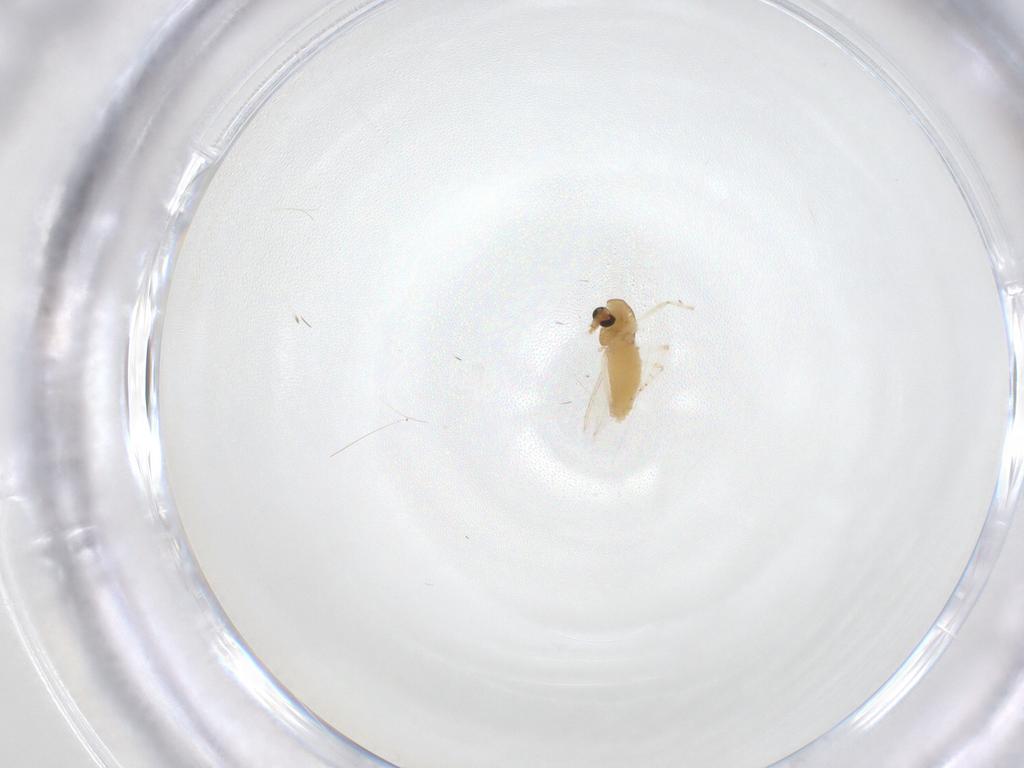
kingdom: Animalia
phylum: Arthropoda
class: Insecta
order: Diptera
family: Chironomidae
